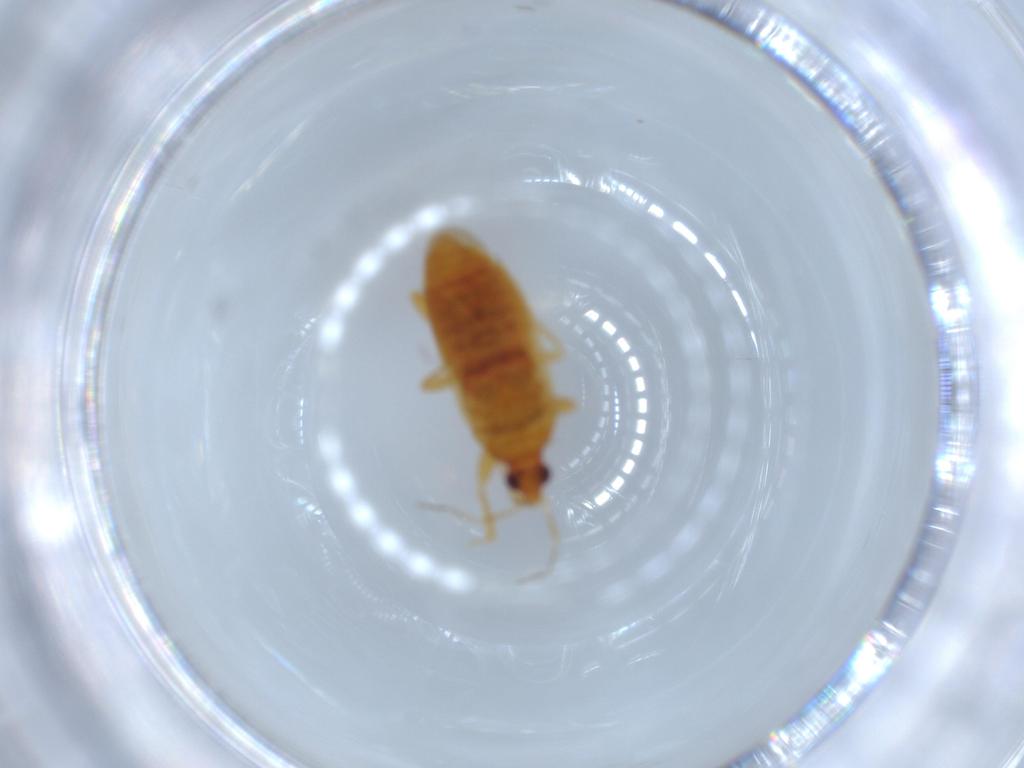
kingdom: Animalia
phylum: Arthropoda
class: Insecta
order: Hemiptera
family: Anthocoridae
